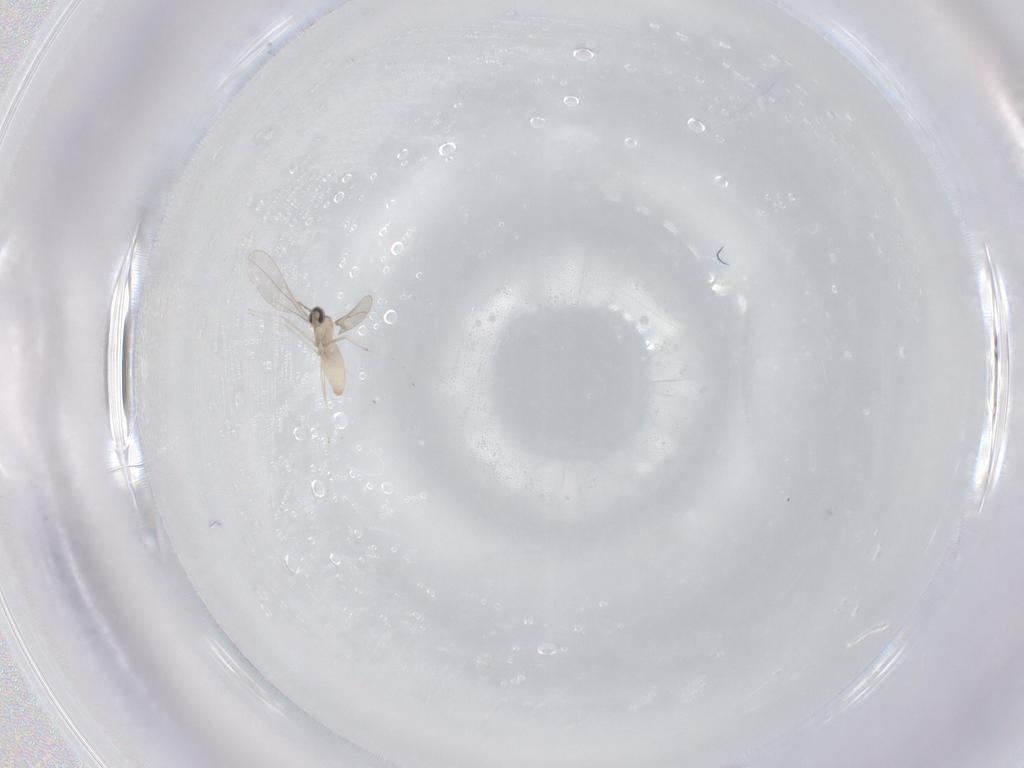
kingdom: Animalia
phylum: Arthropoda
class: Insecta
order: Diptera
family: Cecidomyiidae
